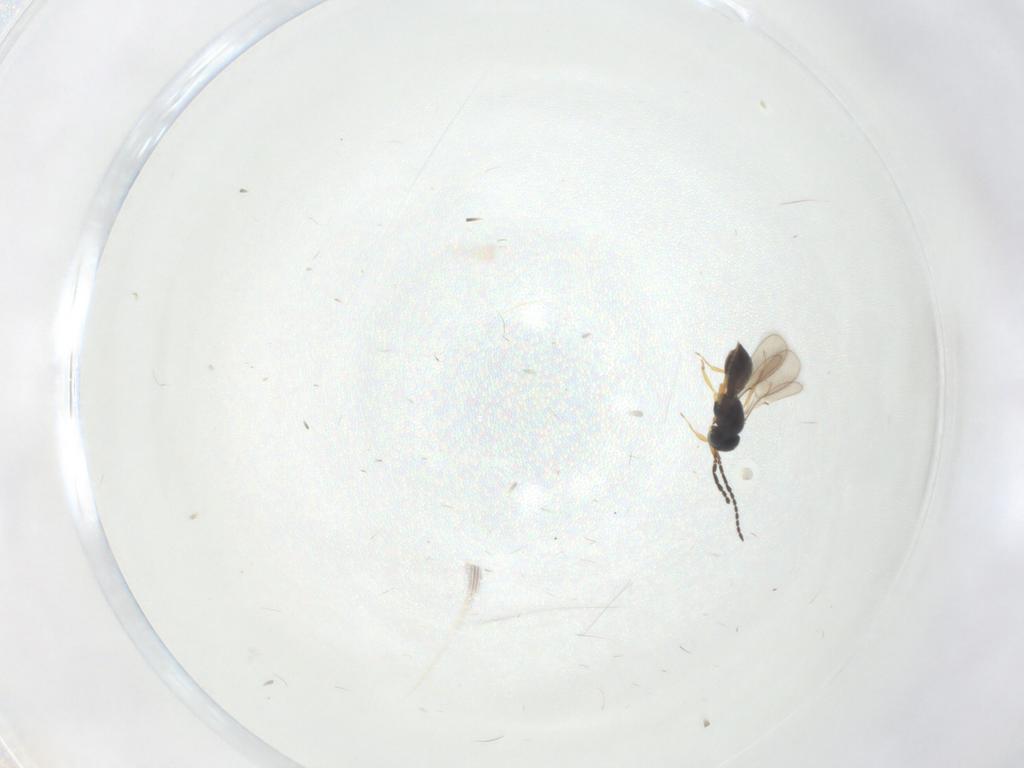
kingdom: Animalia
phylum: Arthropoda
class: Insecta
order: Hymenoptera
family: Scelionidae
